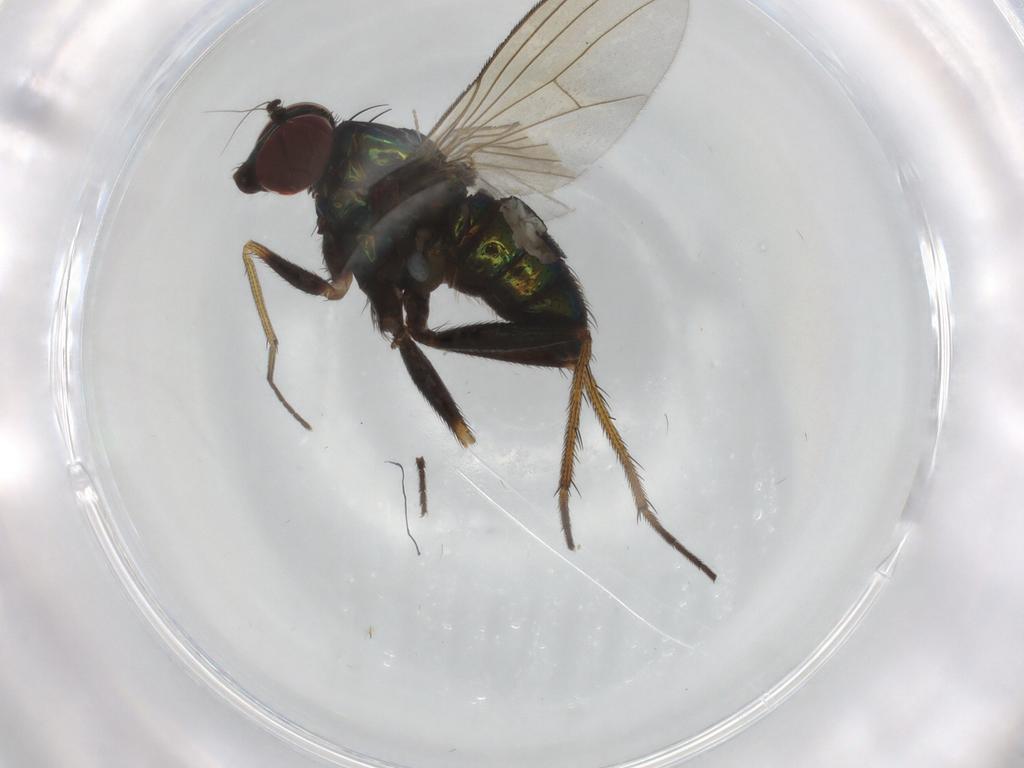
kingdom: Animalia
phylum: Arthropoda
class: Insecta
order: Diptera
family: Dolichopodidae
